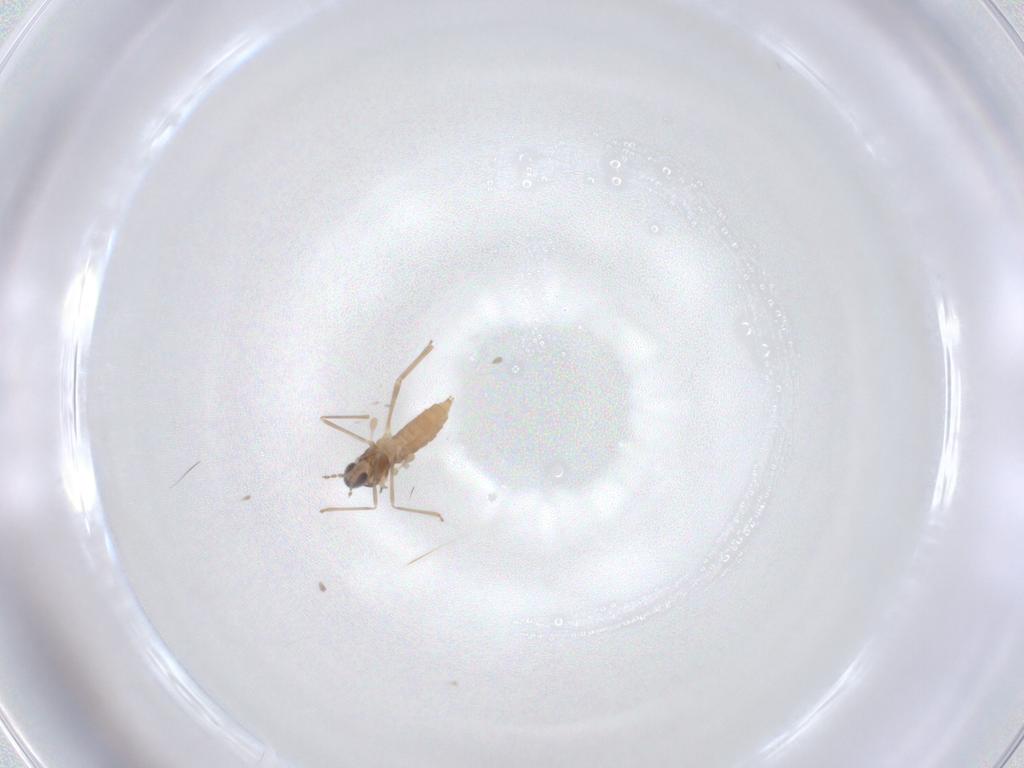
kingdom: Animalia
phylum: Arthropoda
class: Insecta
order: Diptera
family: Cecidomyiidae
